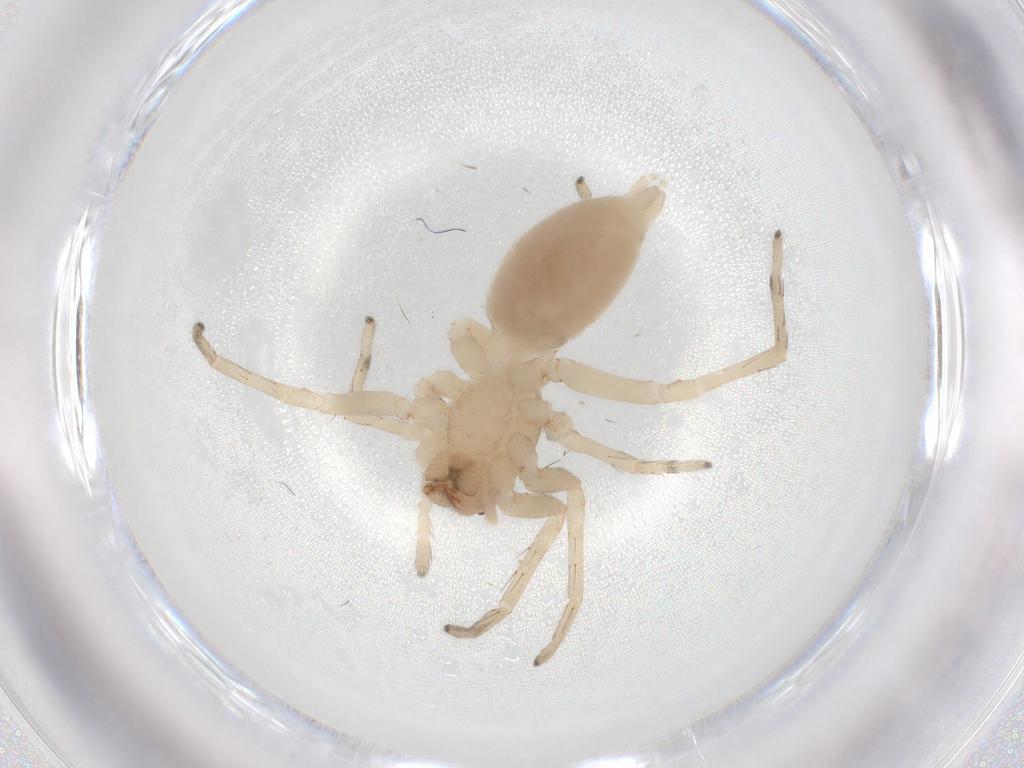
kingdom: Animalia
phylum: Arthropoda
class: Arachnida
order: Araneae
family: Anyphaenidae
